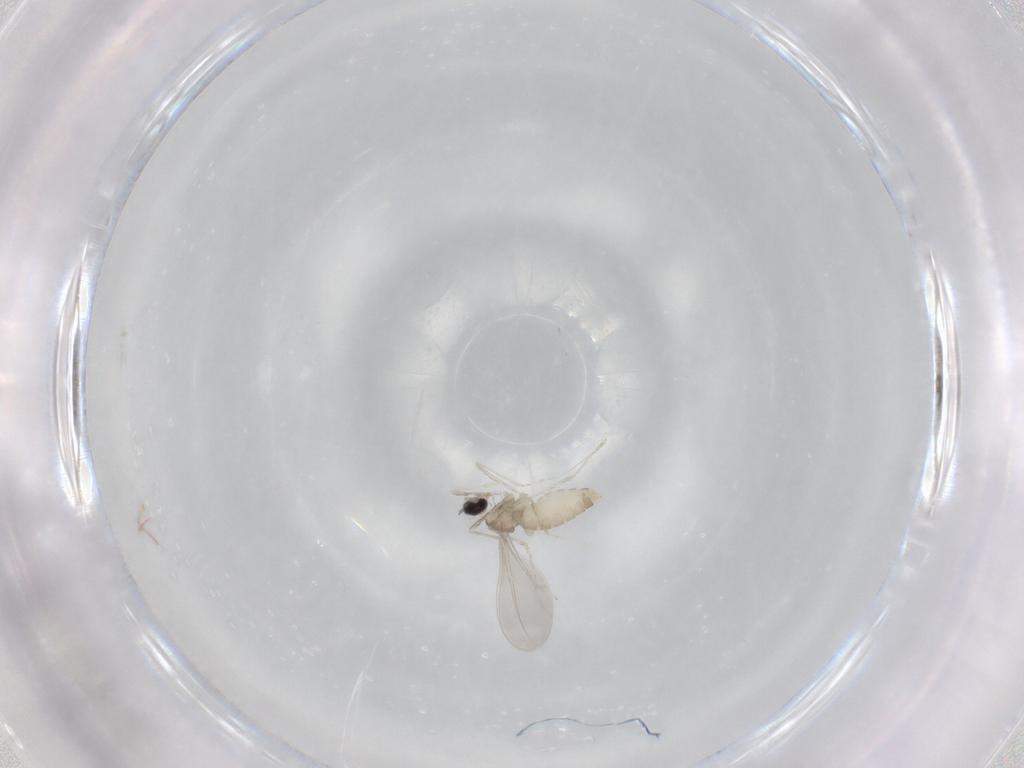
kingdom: Animalia
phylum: Arthropoda
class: Insecta
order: Diptera
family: Cecidomyiidae
